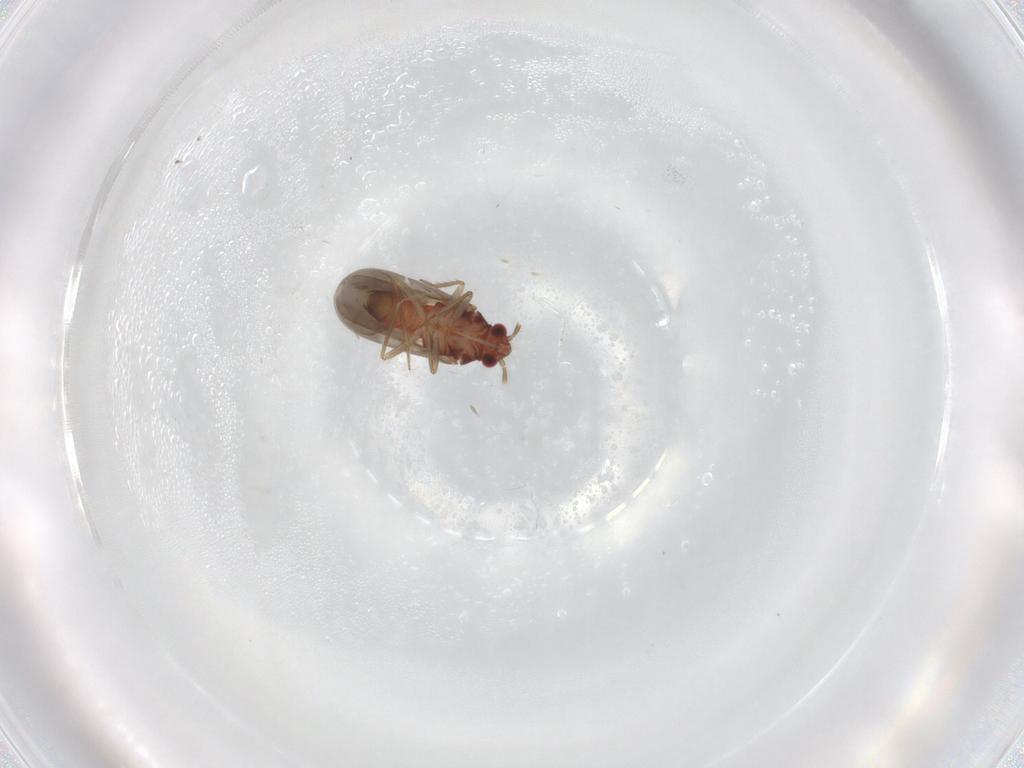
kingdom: Animalia
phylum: Arthropoda
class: Insecta
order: Hemiptera
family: Ceratocombidae
